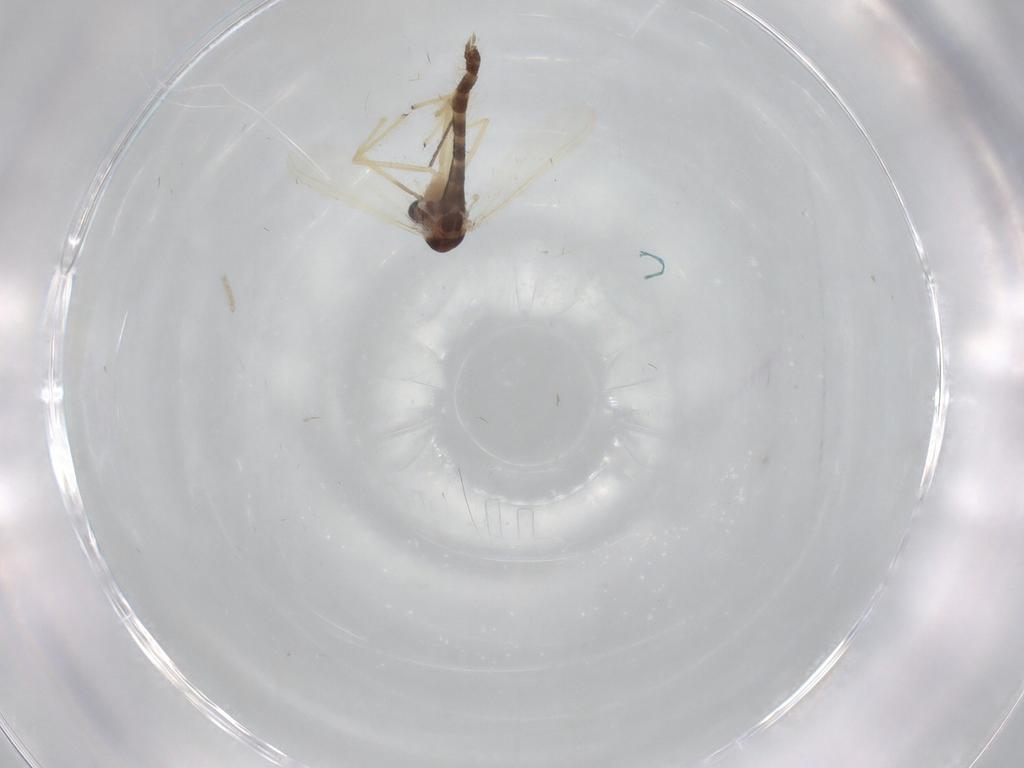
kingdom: Animalia
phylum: Arthropoda
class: Insecta
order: Diptera
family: Chironomidae
